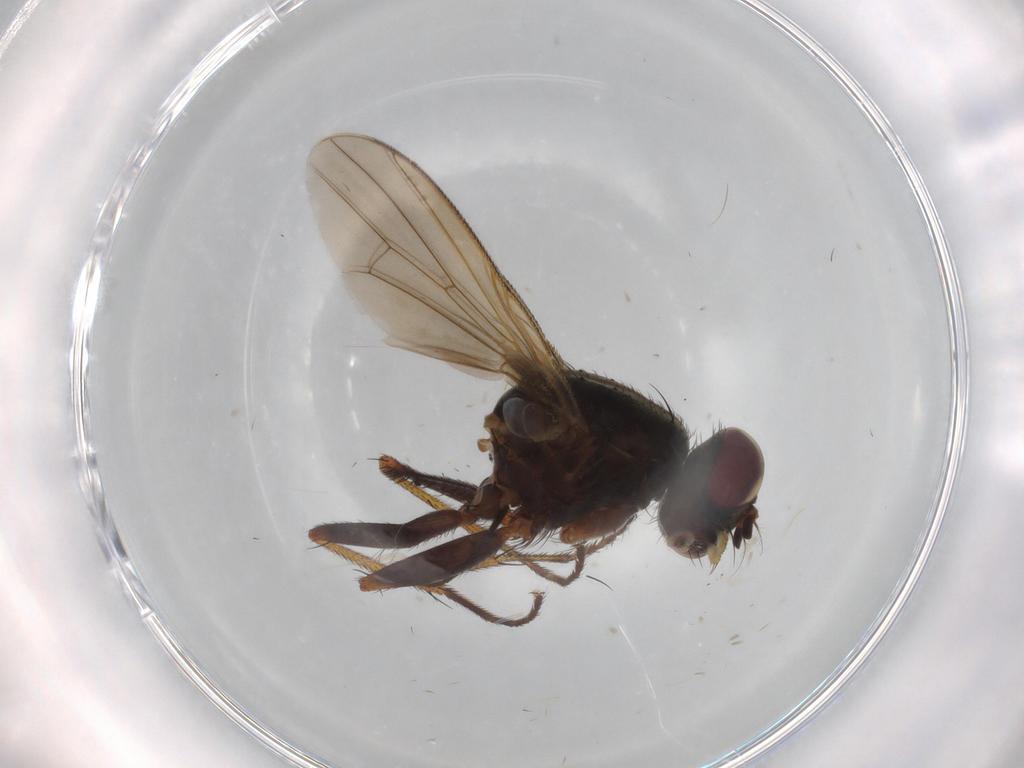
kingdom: Animalia
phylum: Arthropoda
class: Insecta
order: Diptera
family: Muscidae
